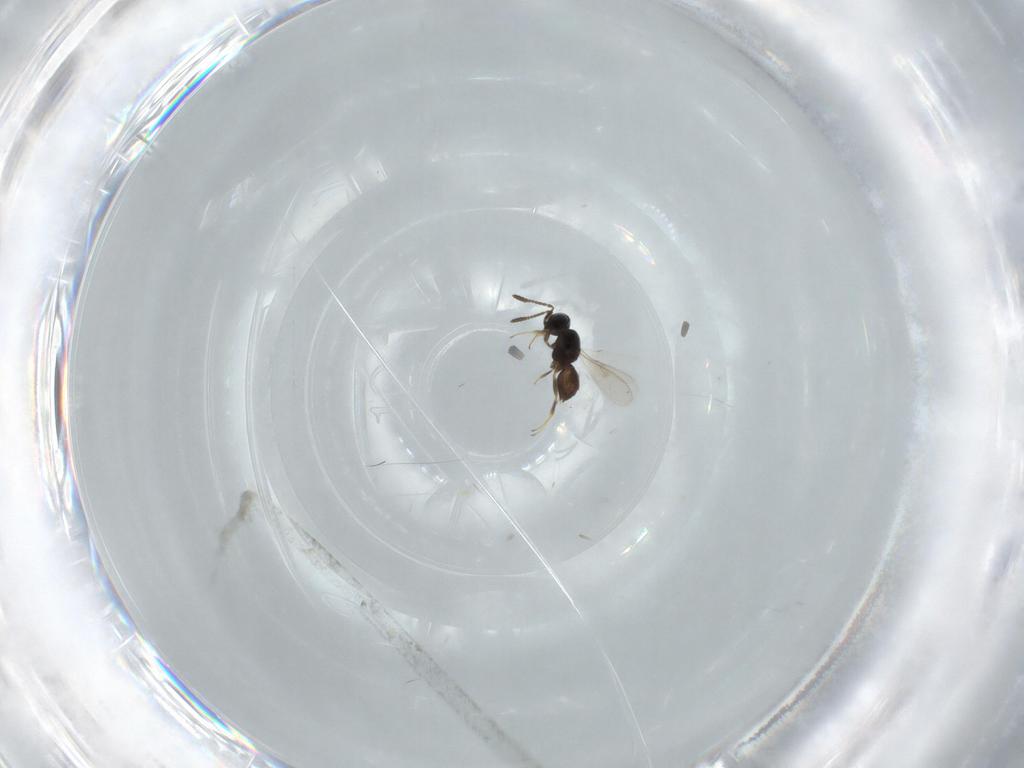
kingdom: Animalia
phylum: Arthropoda
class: Insecta
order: Hymenoptera
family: Scelionidae
